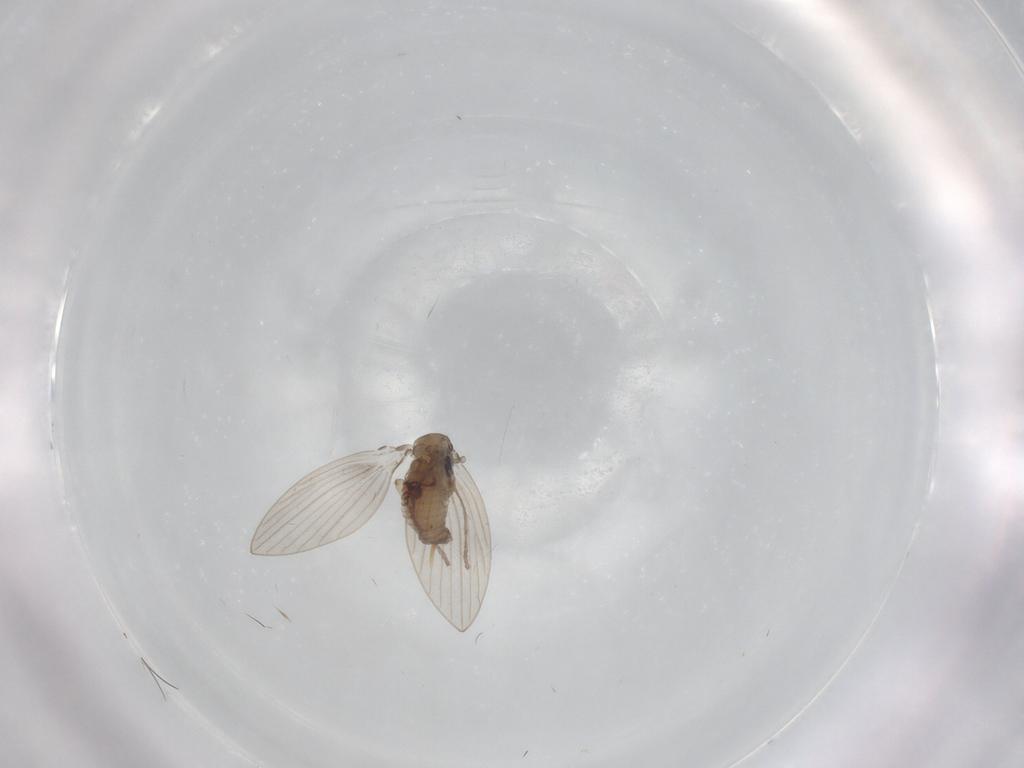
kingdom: Animalia
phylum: Arthropoda
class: Insecta
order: Diptera
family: Psychodidae
